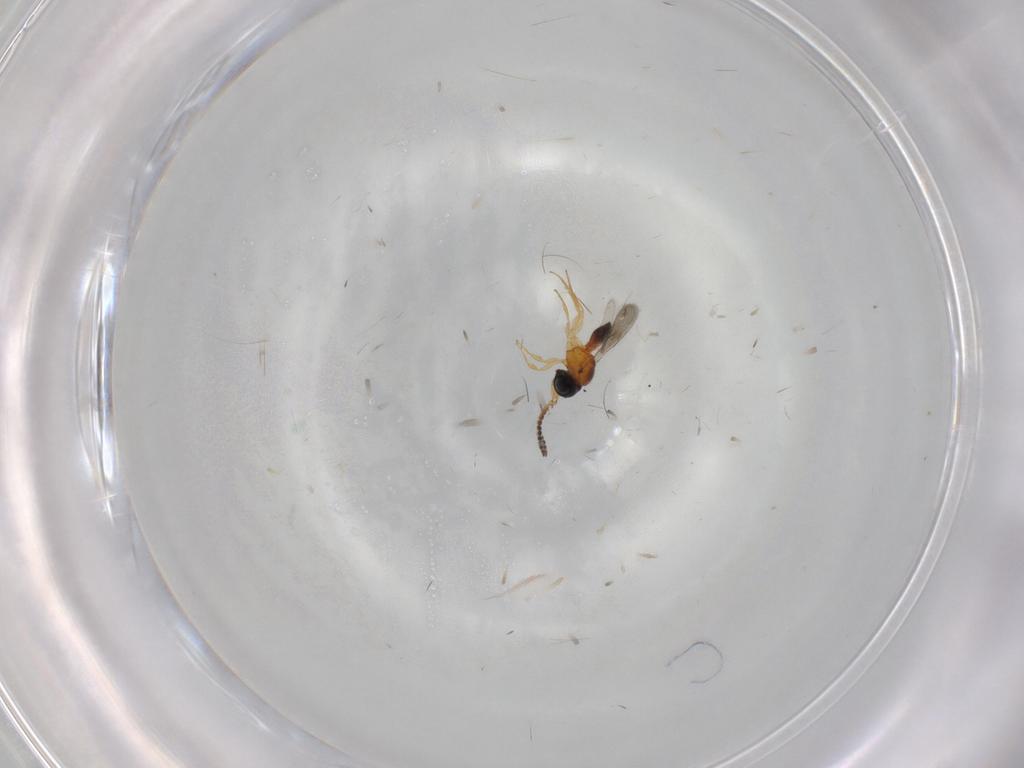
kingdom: Animalia
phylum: Arthropoda
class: Insecta
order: Hymenoptera
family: Scelionidae
